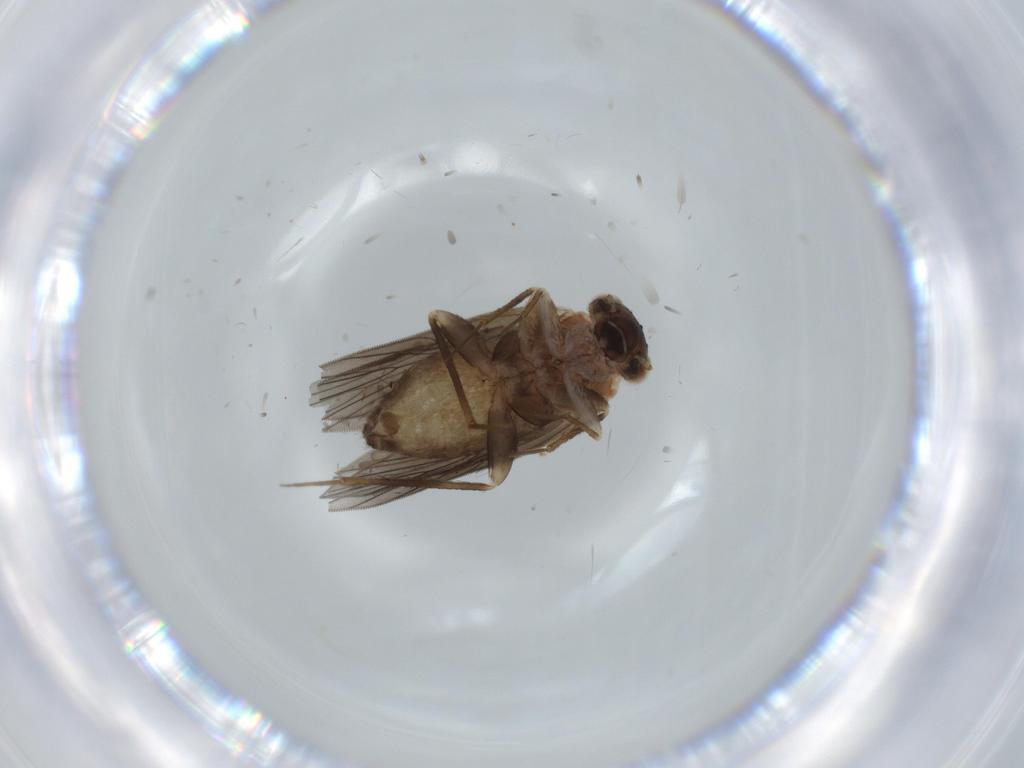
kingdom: Animalia
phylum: Arthropoda
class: Insecta
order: Psocodea
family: Lepidopsocidae
